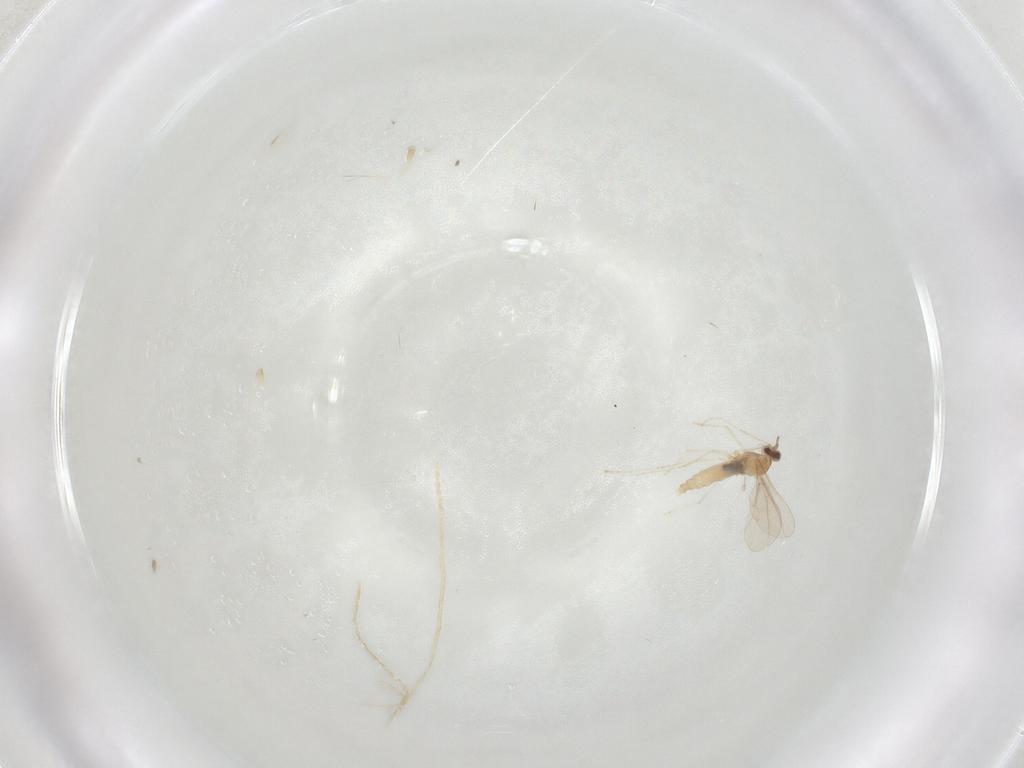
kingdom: Animalia
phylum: Arthropoda
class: Insecta
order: Diptera
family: Cecidomyiidae
